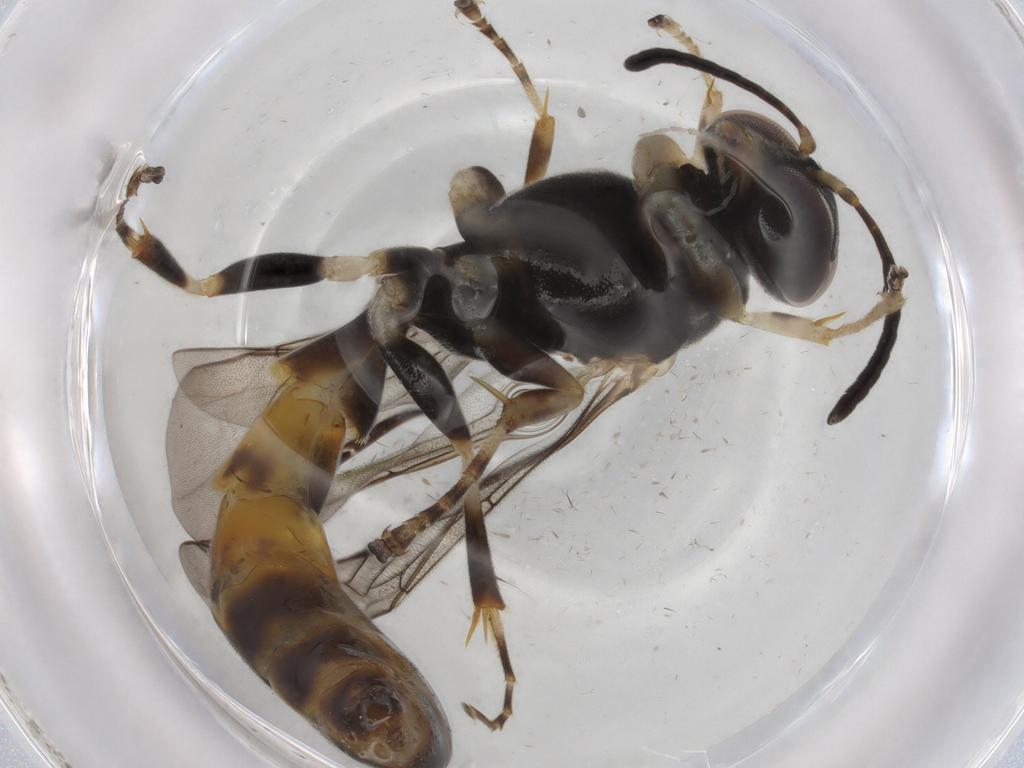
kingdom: Animalia
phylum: Arthropoda
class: Insecta
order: Hymenoptera
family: Crabronidae
